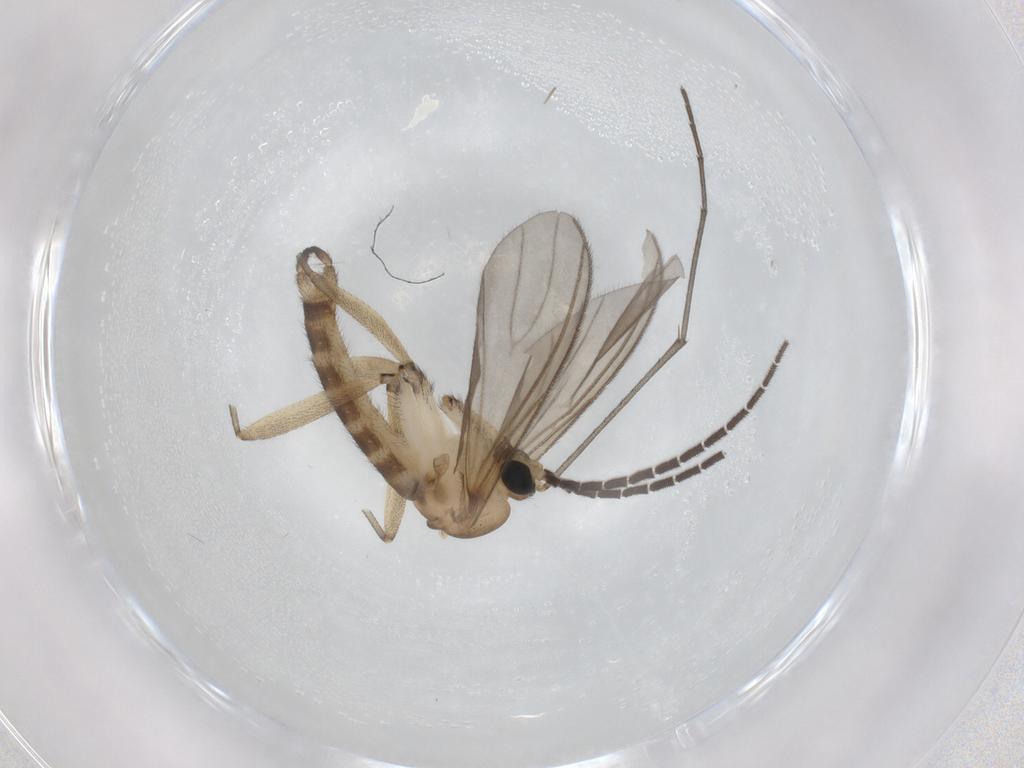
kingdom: Animalia
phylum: Arthropoda
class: Insecta
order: Diptera
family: Sciaridae
